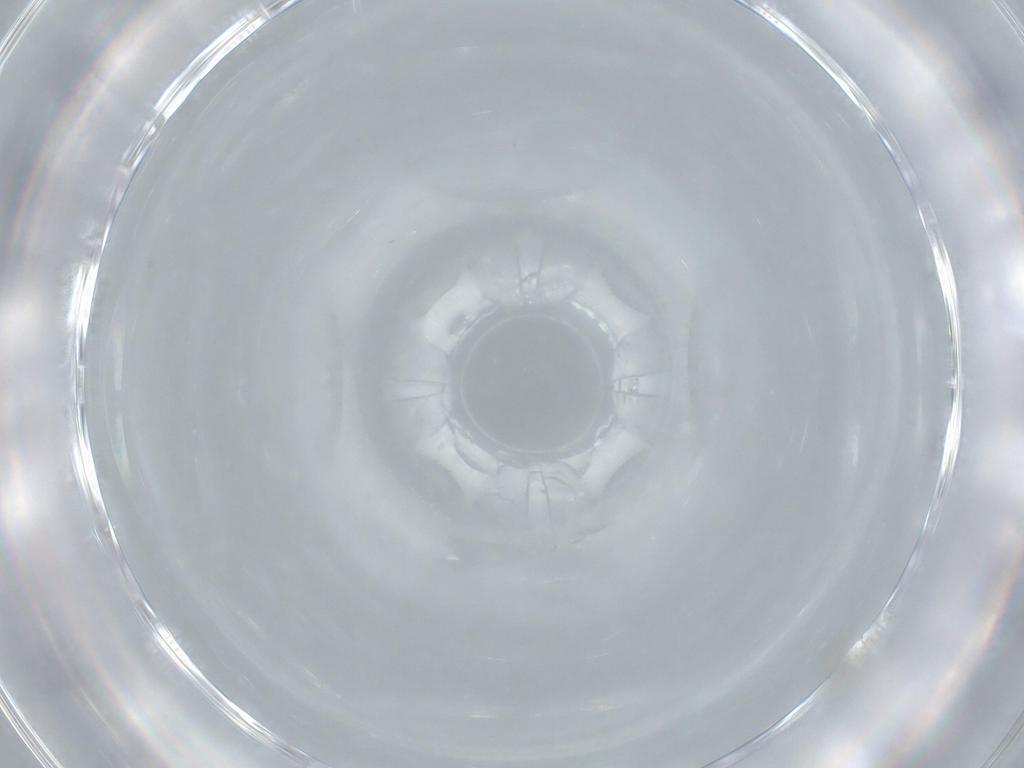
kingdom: Animalia
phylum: Arthropoda
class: Insecta
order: Diptera
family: Drosophilidae
